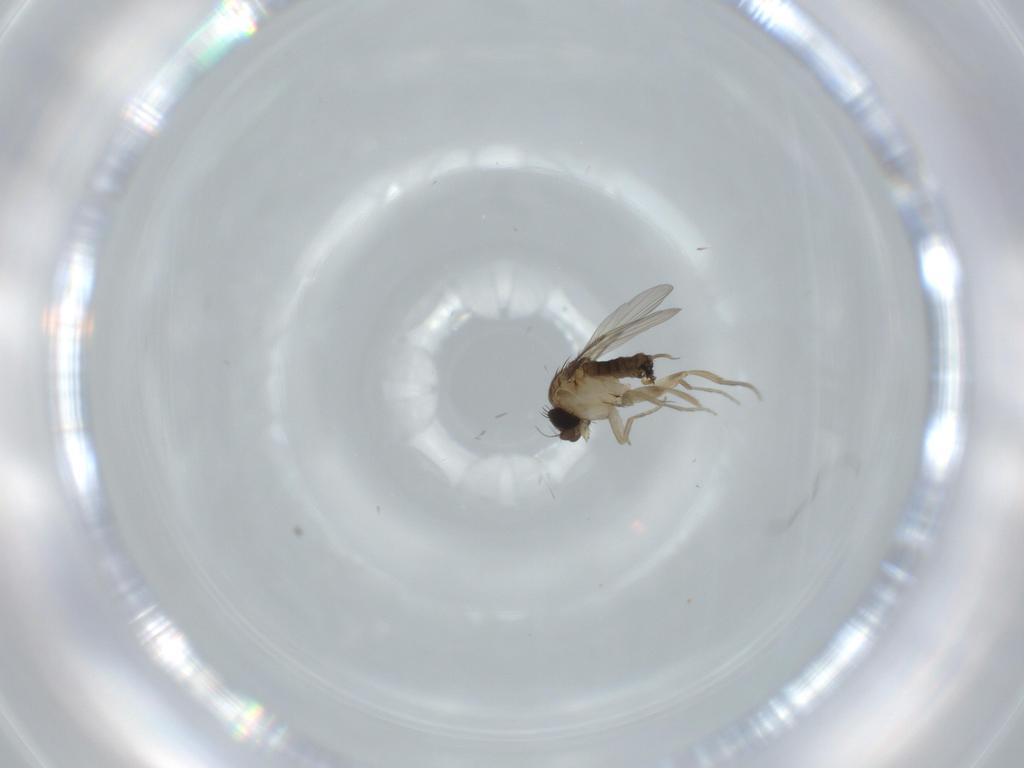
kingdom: Animalia
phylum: Arthropoda
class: Insecta
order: Diptera
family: Phoridae
